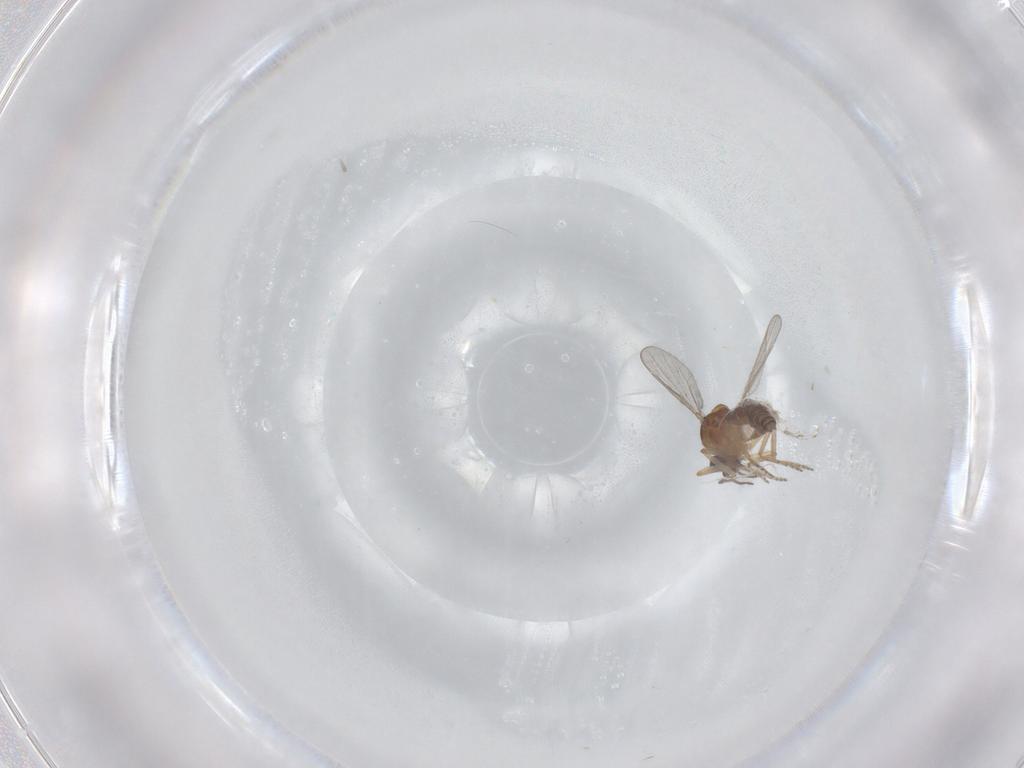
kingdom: Animalia
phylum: Arthropoda
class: Insecta
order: Diptera
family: Ceratopogonidae
